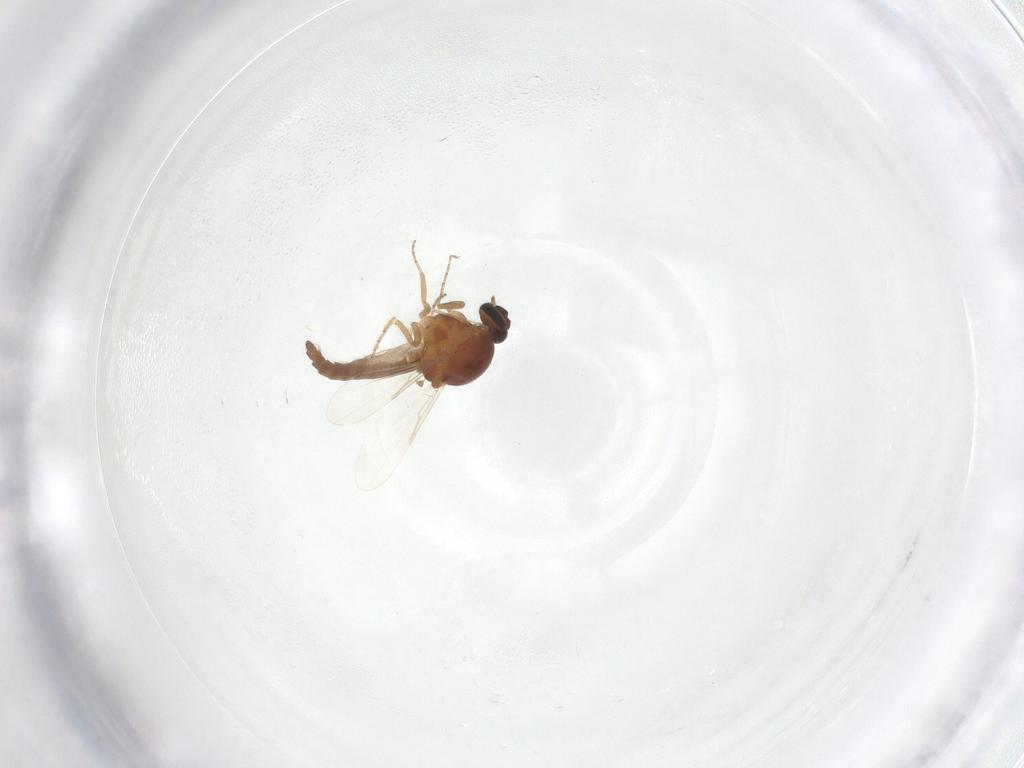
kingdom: Animalia
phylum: Arthropoda
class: Insecta
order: Diptera
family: Ceratopogonidae
